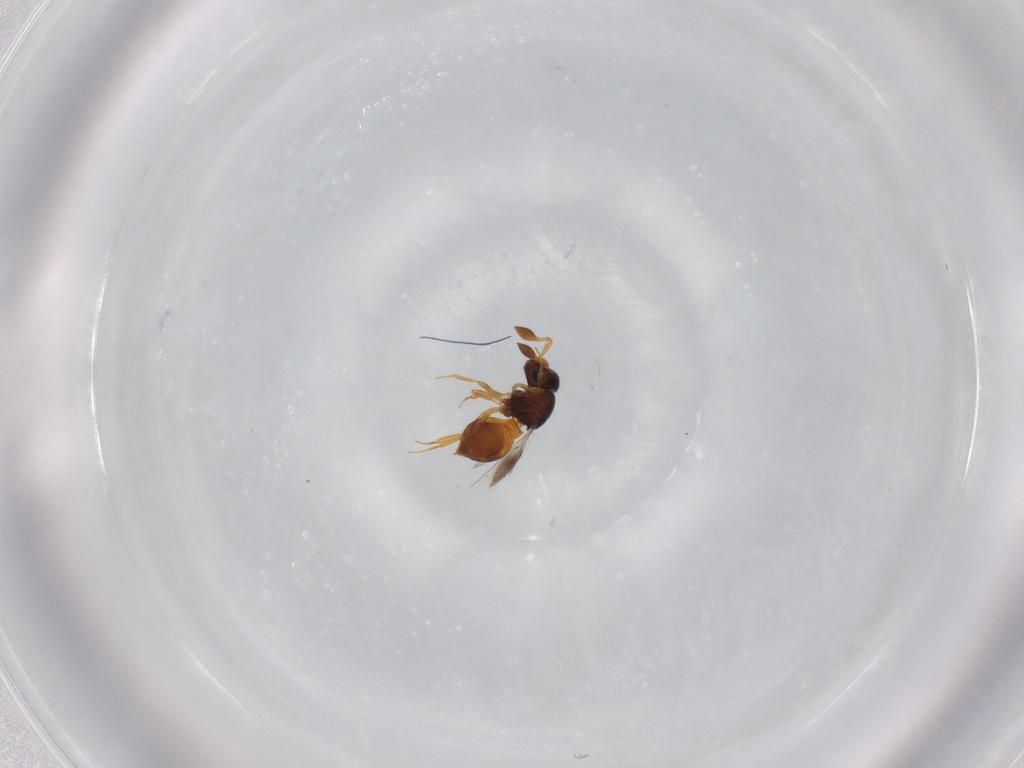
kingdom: Animalia
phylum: Arthropoda
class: Insecta
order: Hymenoptera
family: Scelionidae
